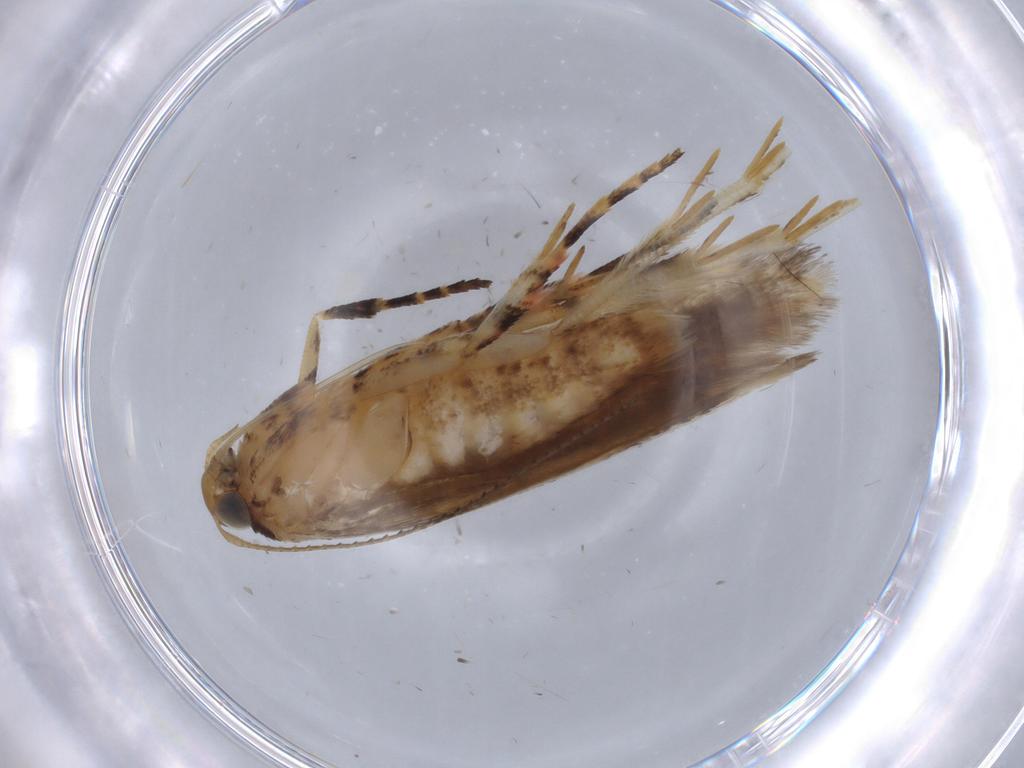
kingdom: Animalia
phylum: Arthropoda
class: Insecta
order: Lepidoptera
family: Gelechiidae
